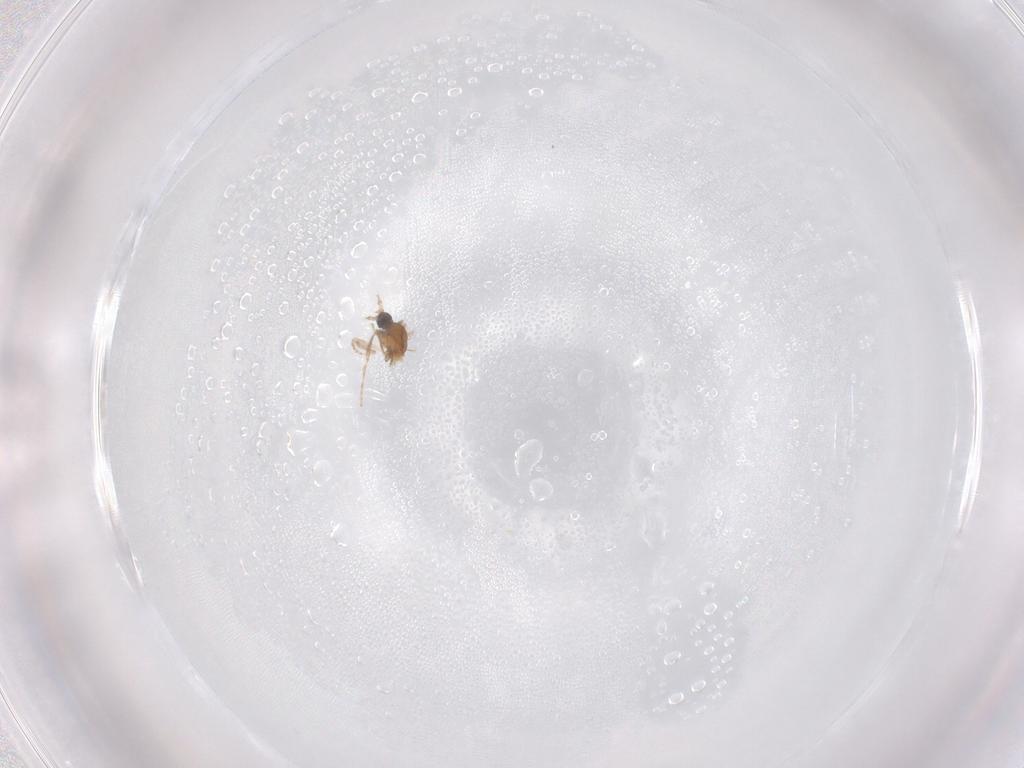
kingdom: Animalia
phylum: Arthropoda
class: Insecta
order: Diptera
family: Cecidomyiidae
